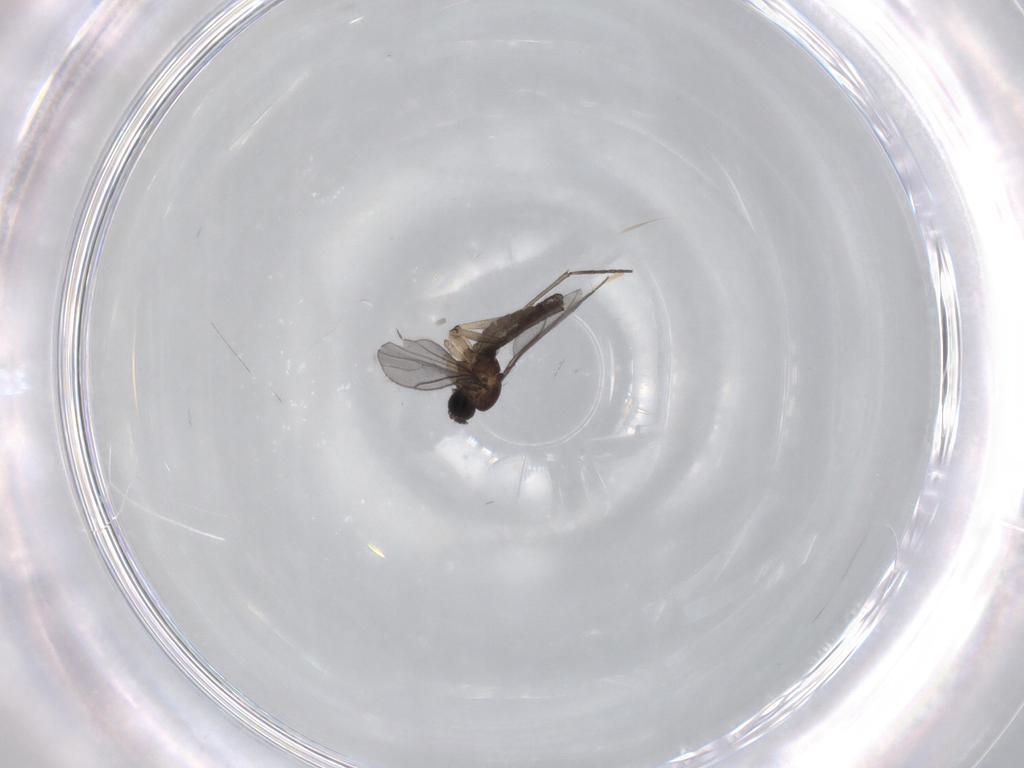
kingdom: Animalia
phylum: Arthropoda
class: Insecta
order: Diptera
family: Sciaridae
